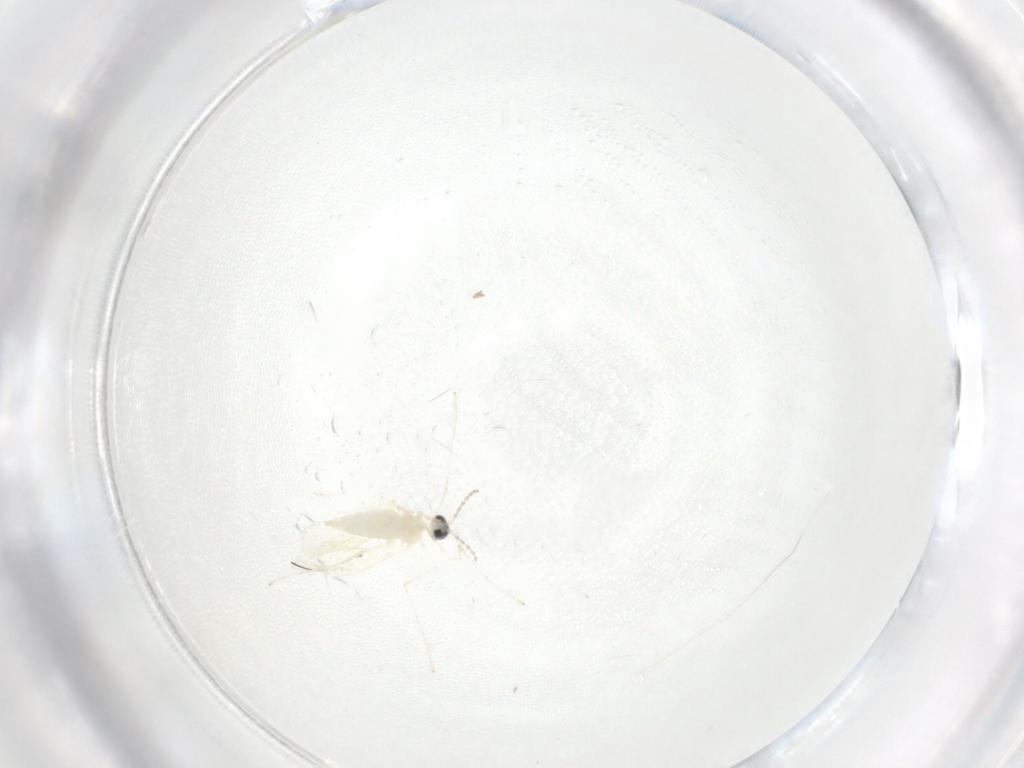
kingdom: Animalia
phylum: Arthropoda
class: Insecta
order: Diptera
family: Cecidomyiidae
